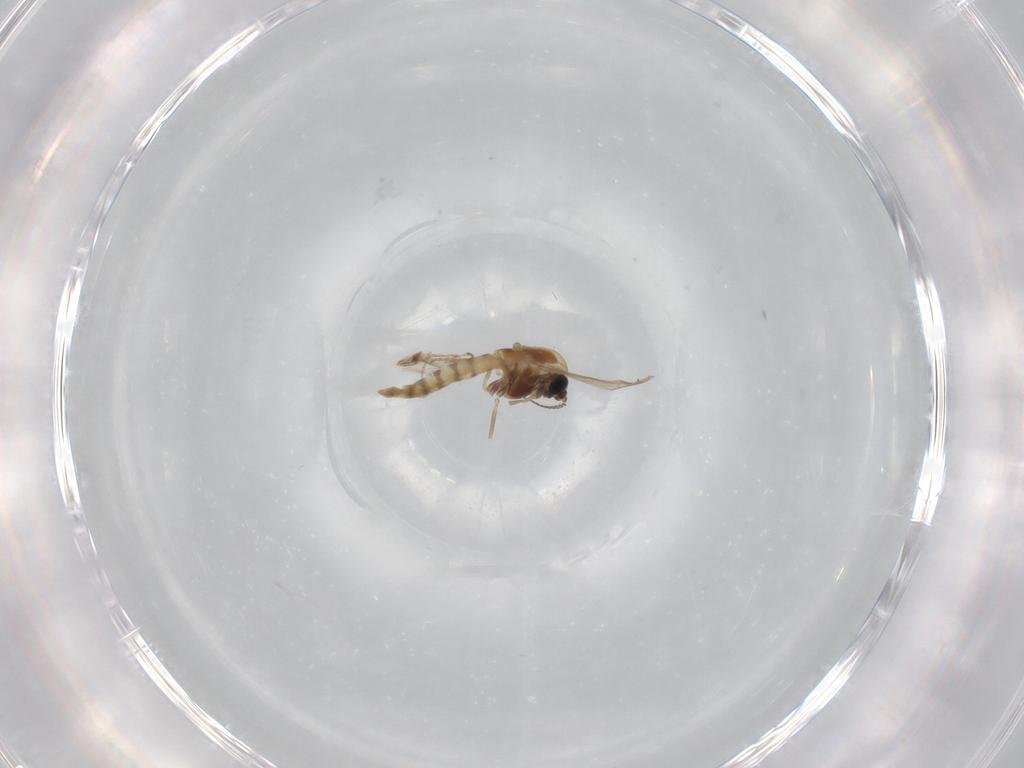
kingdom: Animalia
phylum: Arthropoda
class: Insecta
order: Diptera
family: Chironomidae
